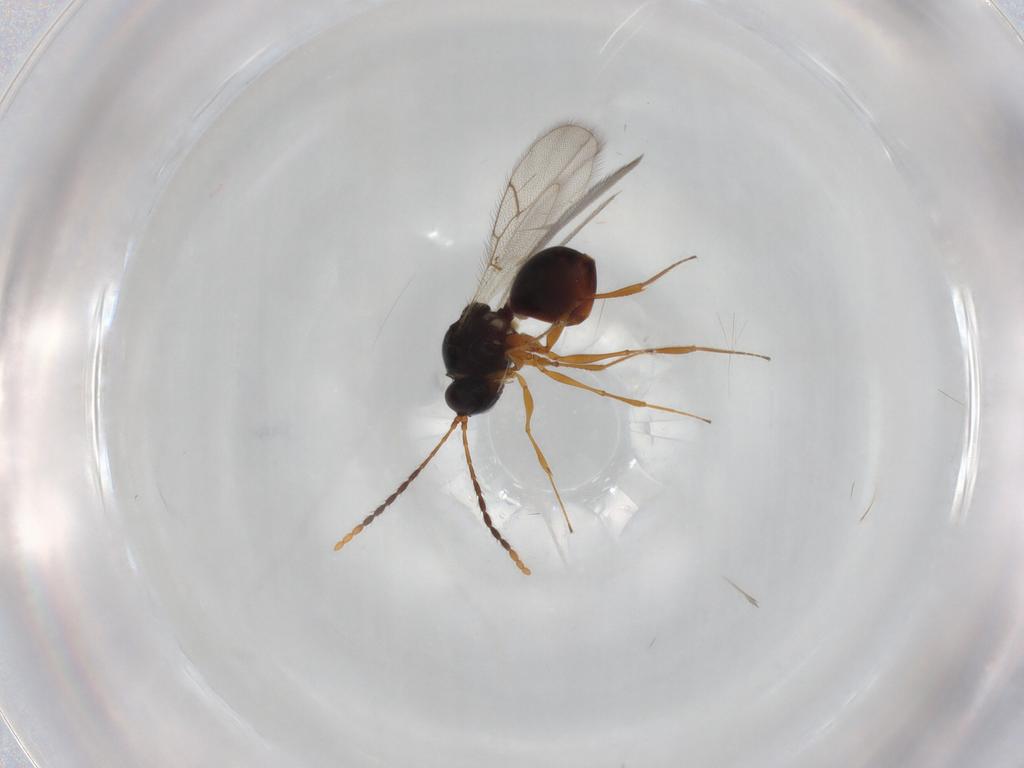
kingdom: Animalia
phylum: Arthropoda
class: Insecta
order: Hymenoptera
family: Figitidae
